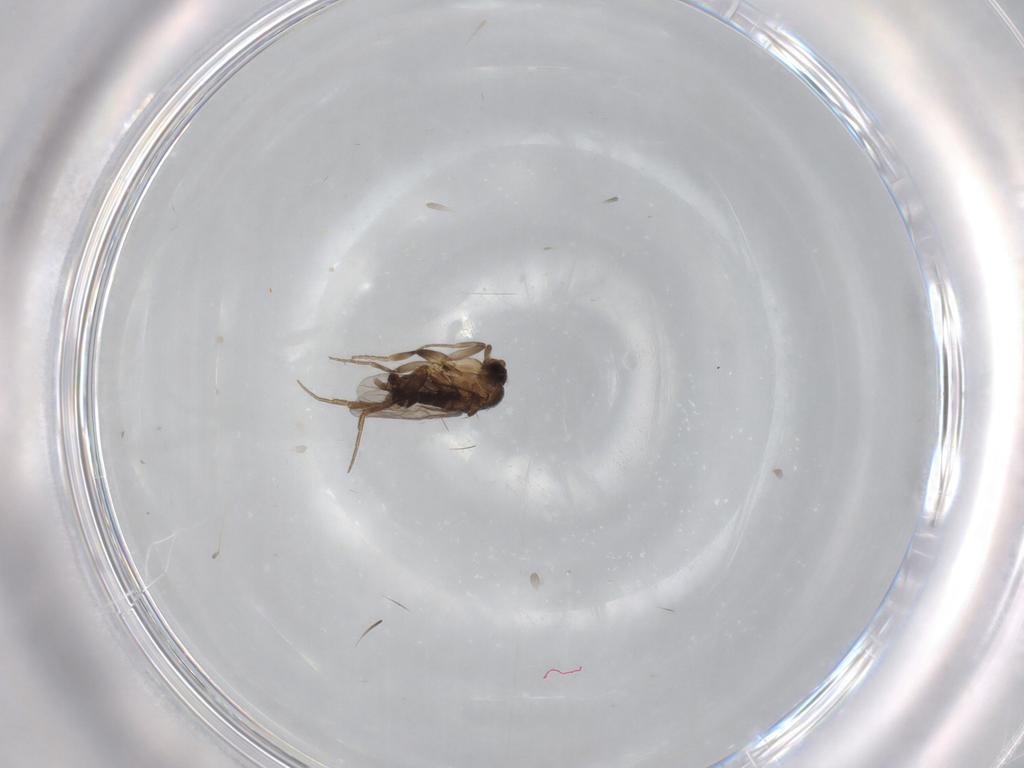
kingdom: Animalia
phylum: Arthropoda
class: Insecta
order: Diptera
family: Phoridae
